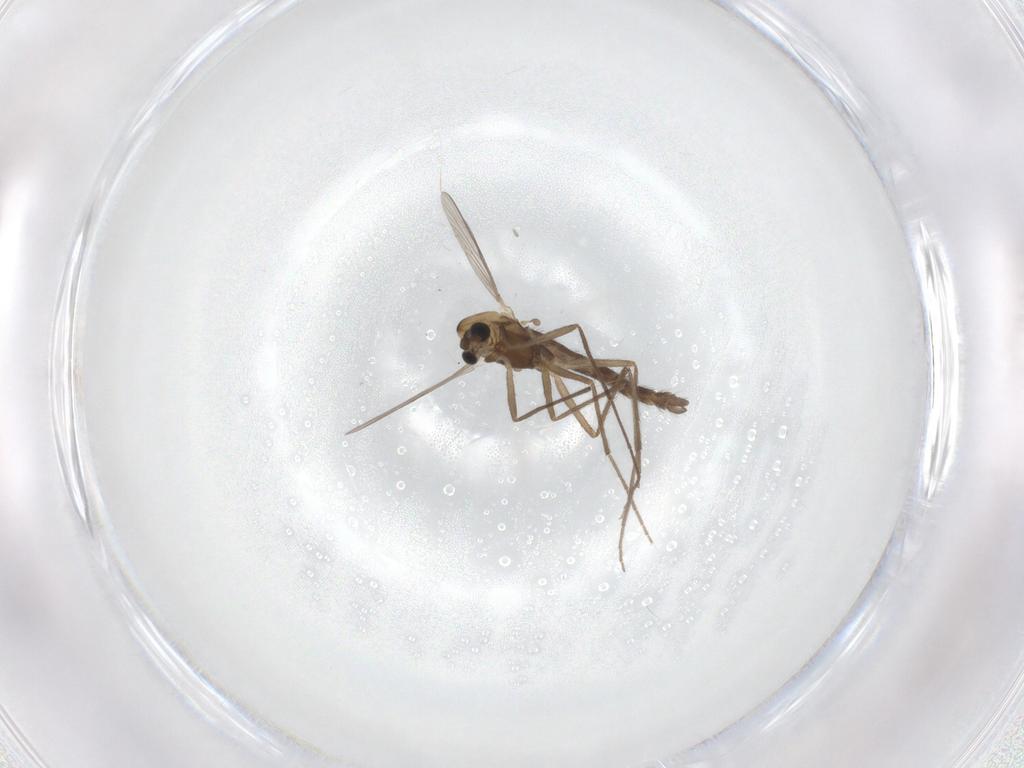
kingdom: Animalia
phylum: Arthropoda
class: Insecta
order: Diptera
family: Chironomidae
